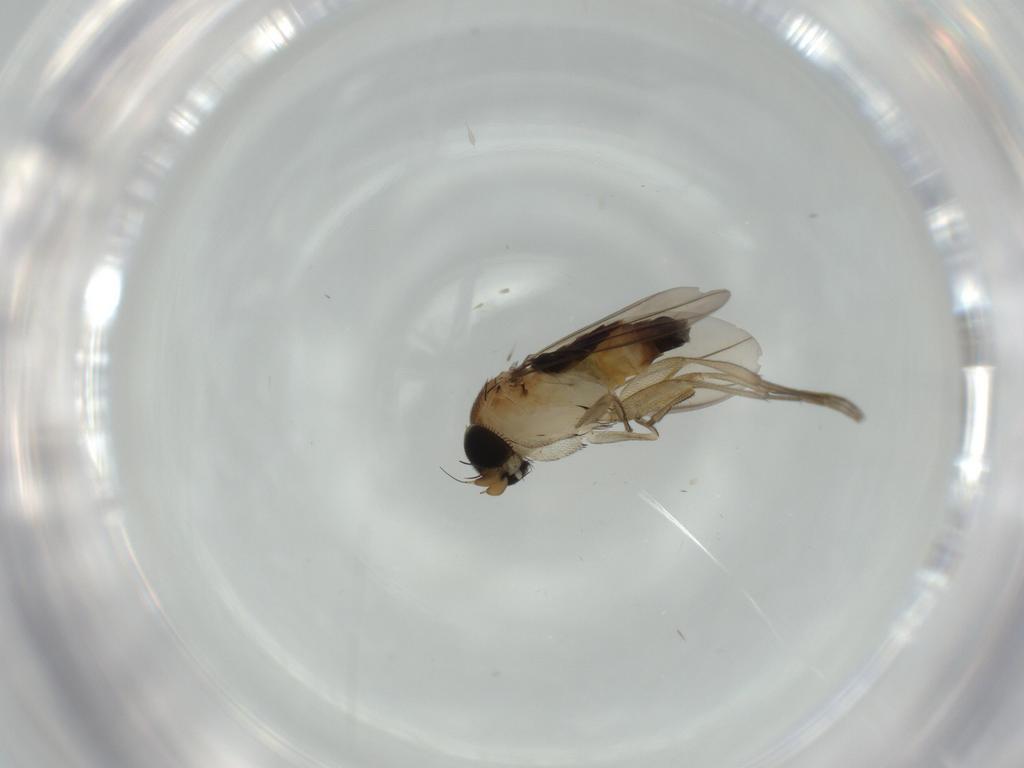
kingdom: Animalia
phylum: Arthropoda
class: Insecta
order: Diptera
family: Phoridae
